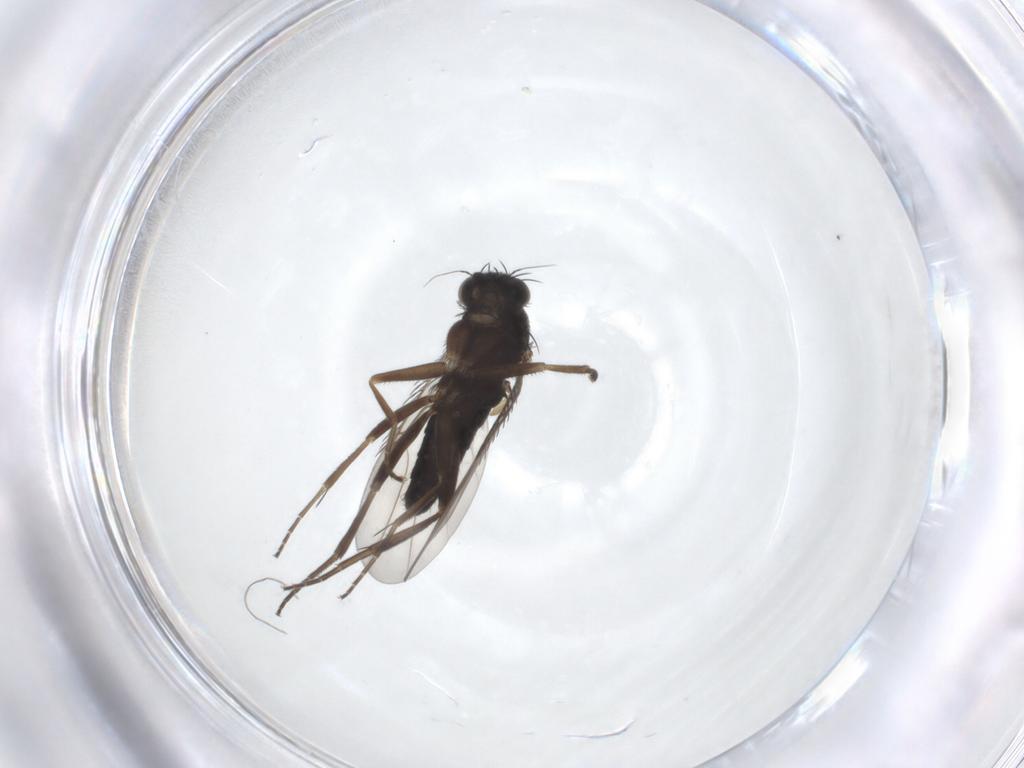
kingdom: Animalia
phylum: Arthropoda
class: Insecta
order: Diptera
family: Phoridae
